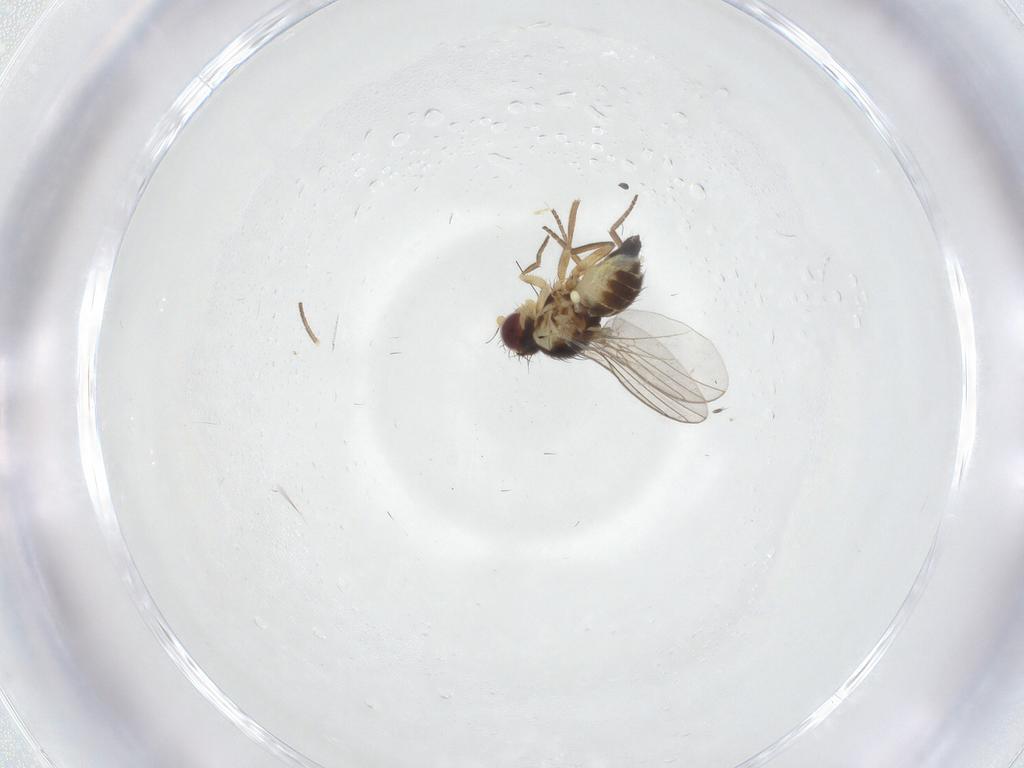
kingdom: Animalia
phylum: Arthropoda
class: Insecta
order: Diptera
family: Agromyzidae
